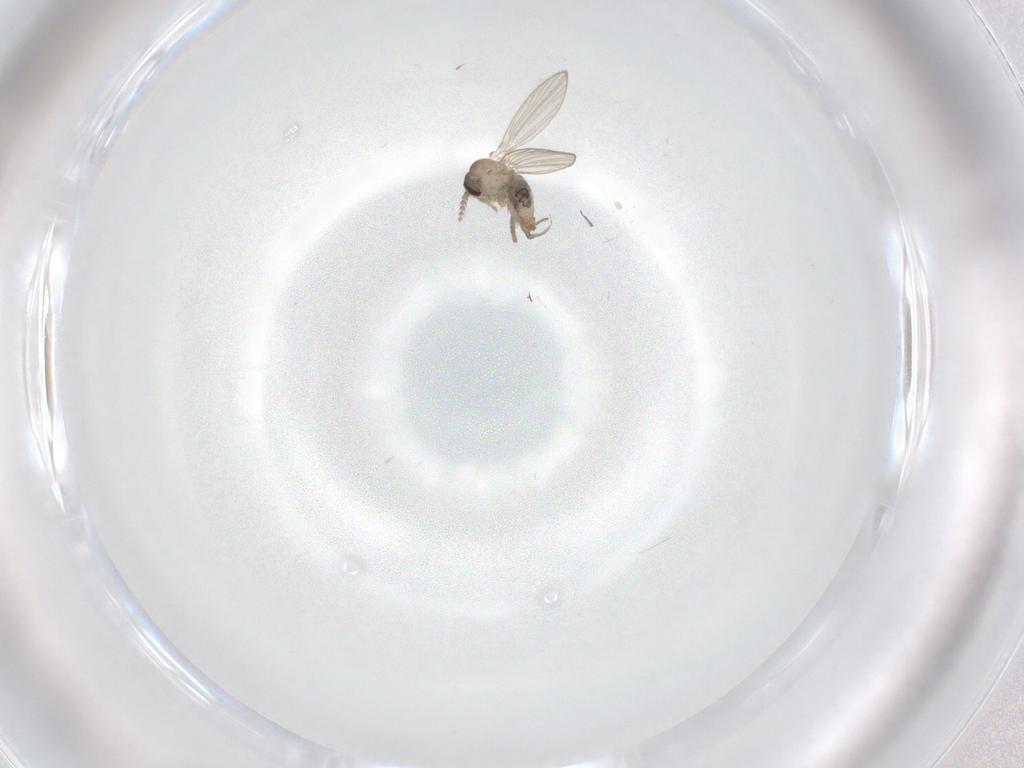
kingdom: Animalia
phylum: Arthropoda
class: Insecta
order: Diptera
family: Psychodidae
